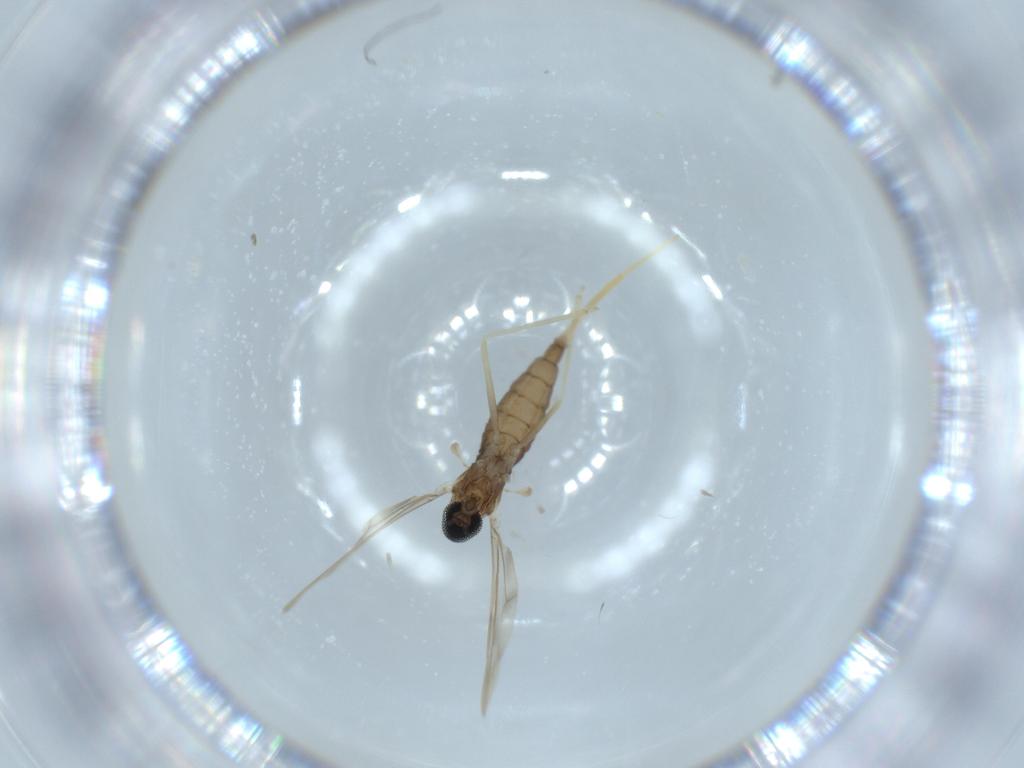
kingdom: Animalia
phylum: Arthropoda
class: Insecta
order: Diptera
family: Cecidomyiidae
